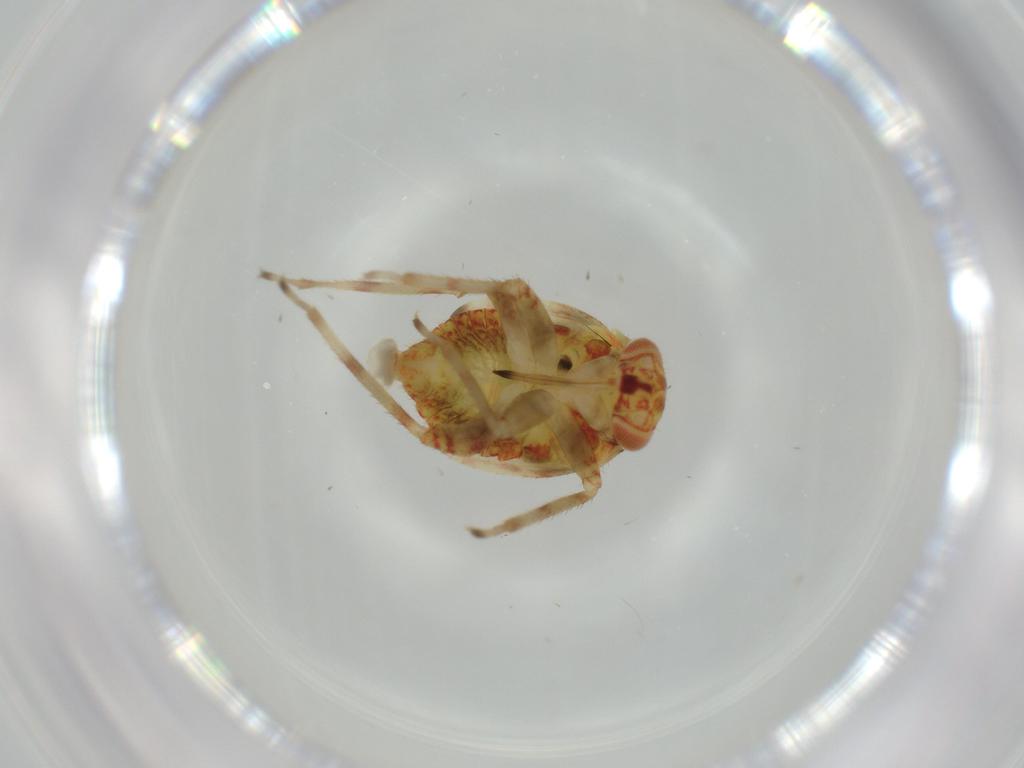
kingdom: Animalia
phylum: Arthropoda
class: Insecta
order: Hemiptera
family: Miridae
